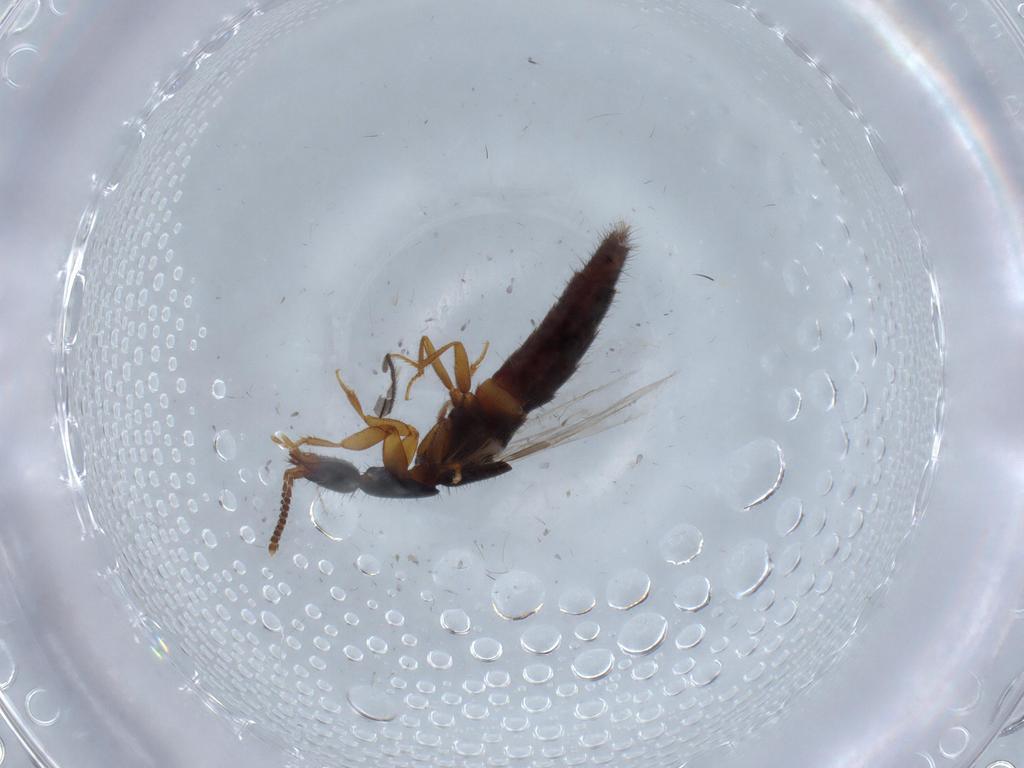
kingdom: Animalia
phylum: Arthropoda
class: Insecta
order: Coleoptera
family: Staphylinidae
